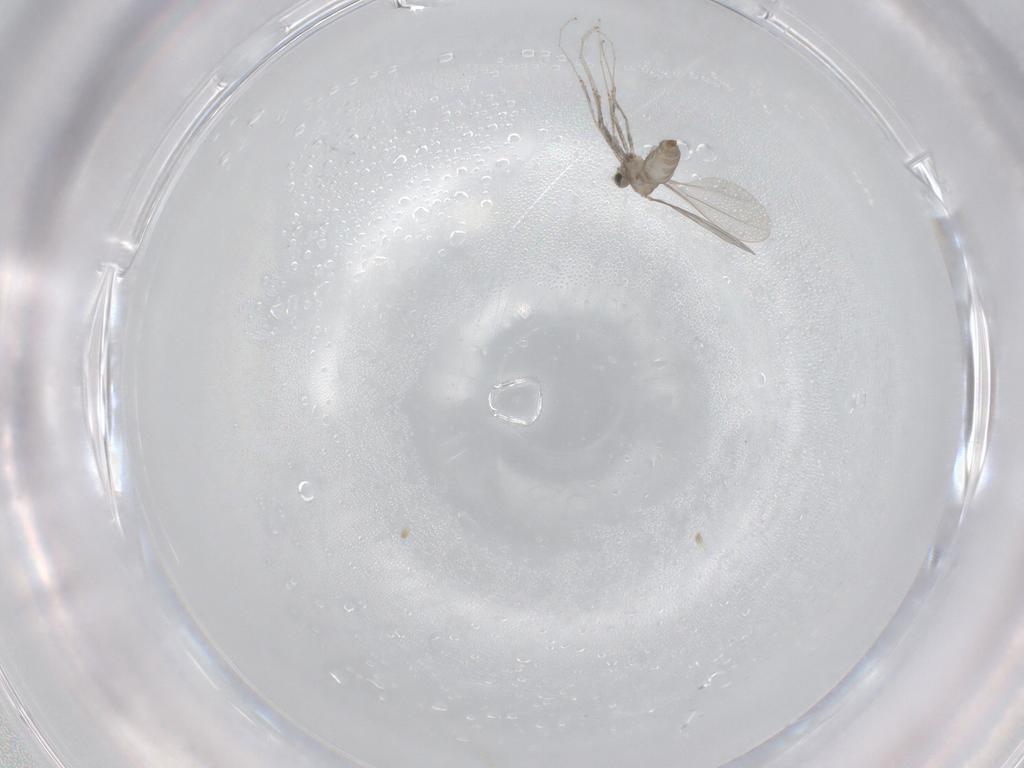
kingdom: Animalia
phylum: Arthropoda
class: Insecta
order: Diptera
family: Cecidomyiidae
